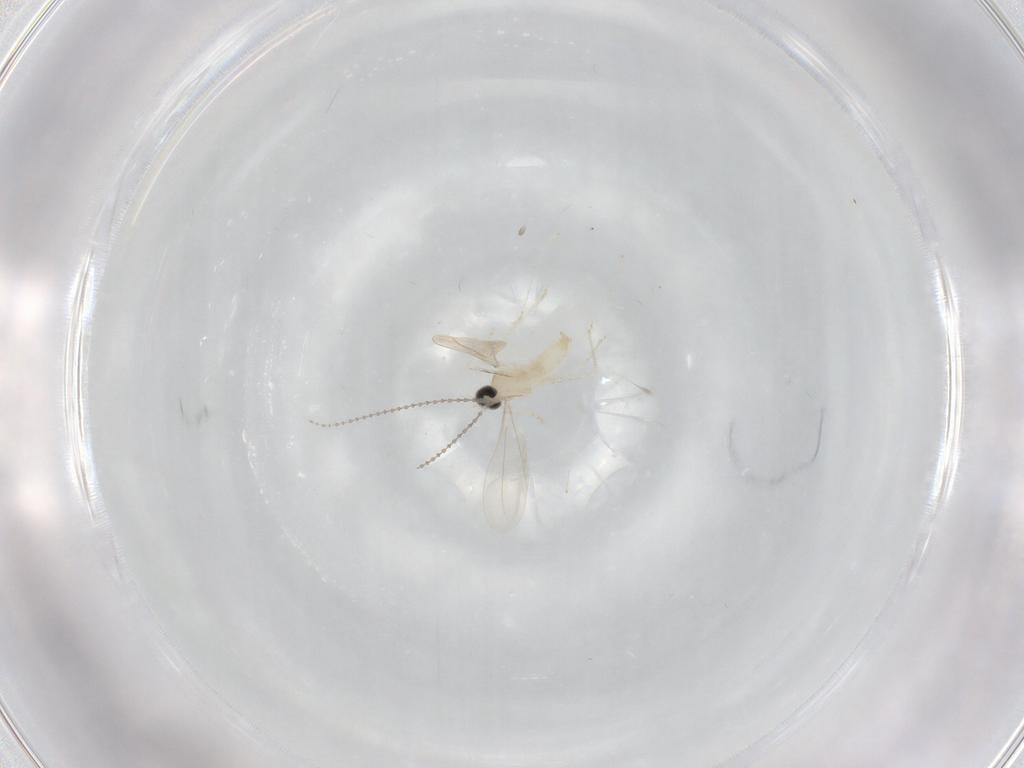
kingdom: Animalia
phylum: Arthropoda
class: Insecta
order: Diptera
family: Cecidomyiidae
